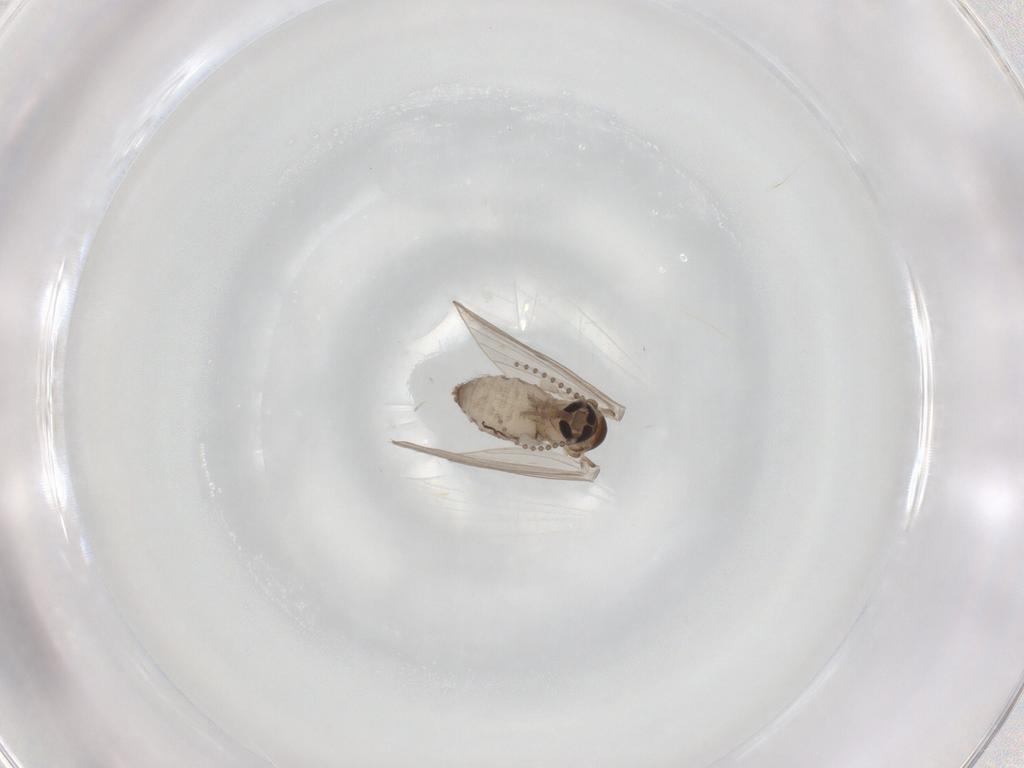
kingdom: Animalia
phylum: Arthropoda
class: Insecta
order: Diptera
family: Psychodidae
